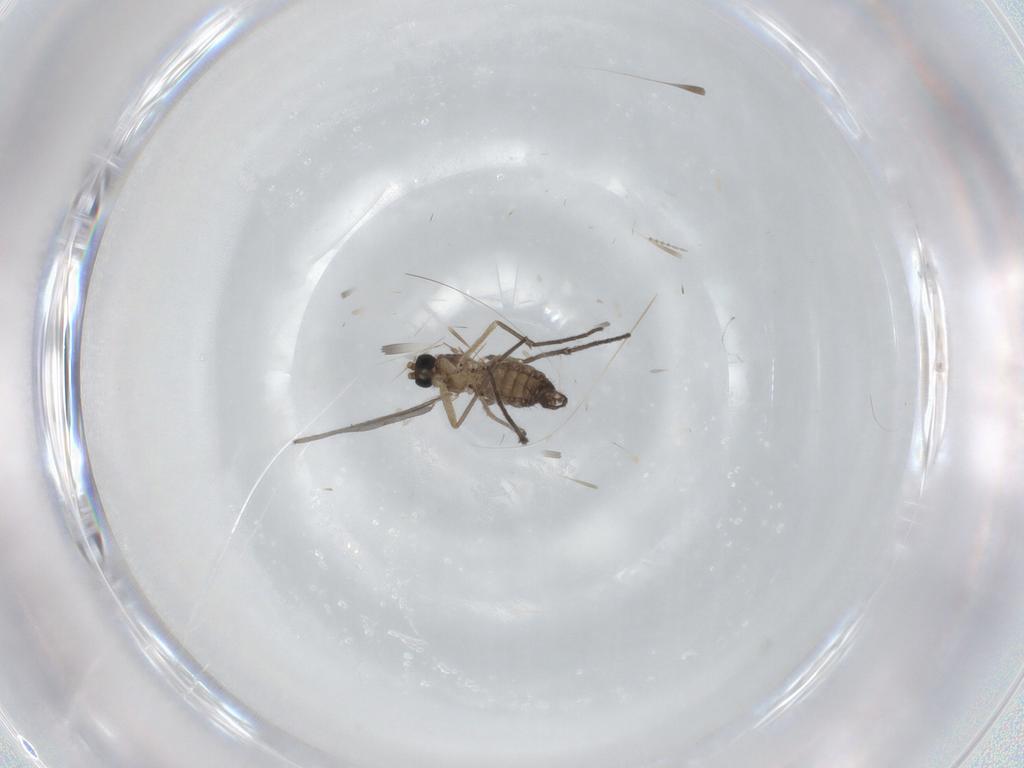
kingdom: Animalia
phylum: Arthropoda
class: Insecta
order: Diptera
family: Sciaridae
